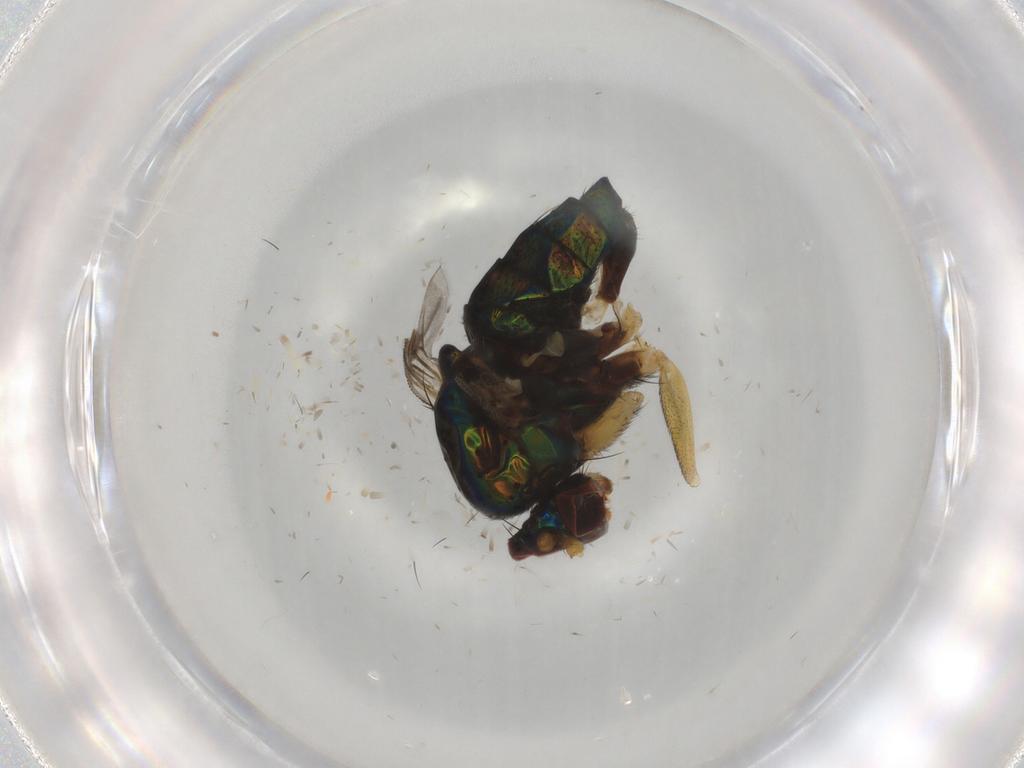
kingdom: Animalia
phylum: Arthropoda
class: Insecta
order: Diptera
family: Dolichopodidae
